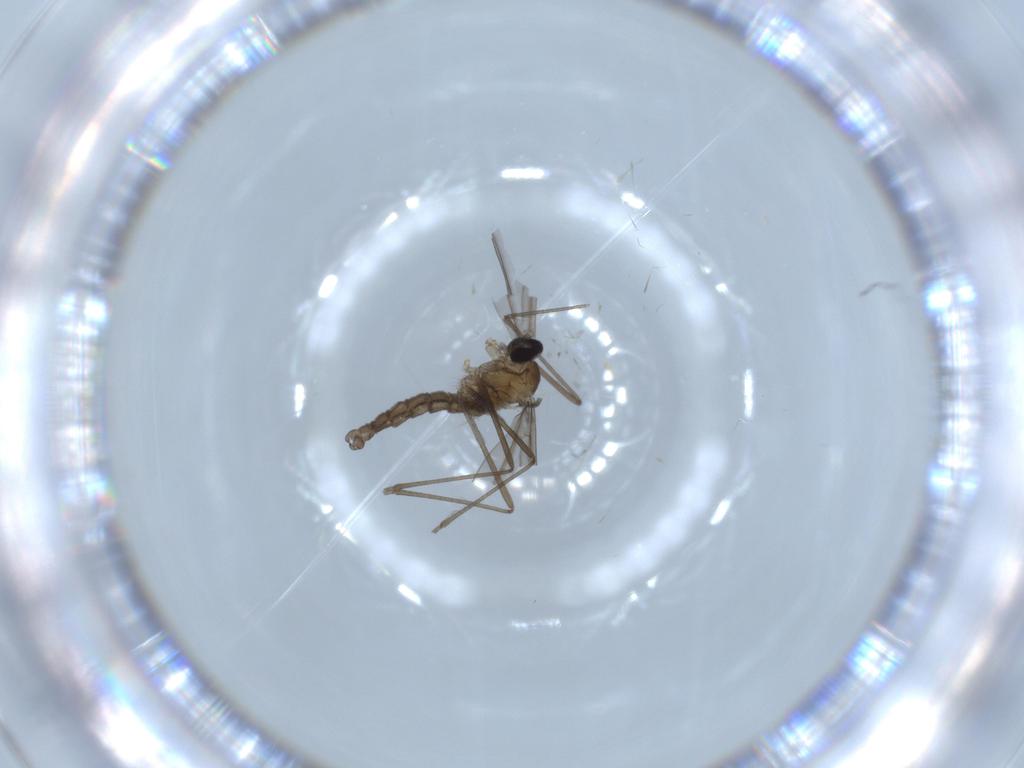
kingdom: Animalia
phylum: Arthropoda
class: Insecta
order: Diptera
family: Cecidomyiidae
